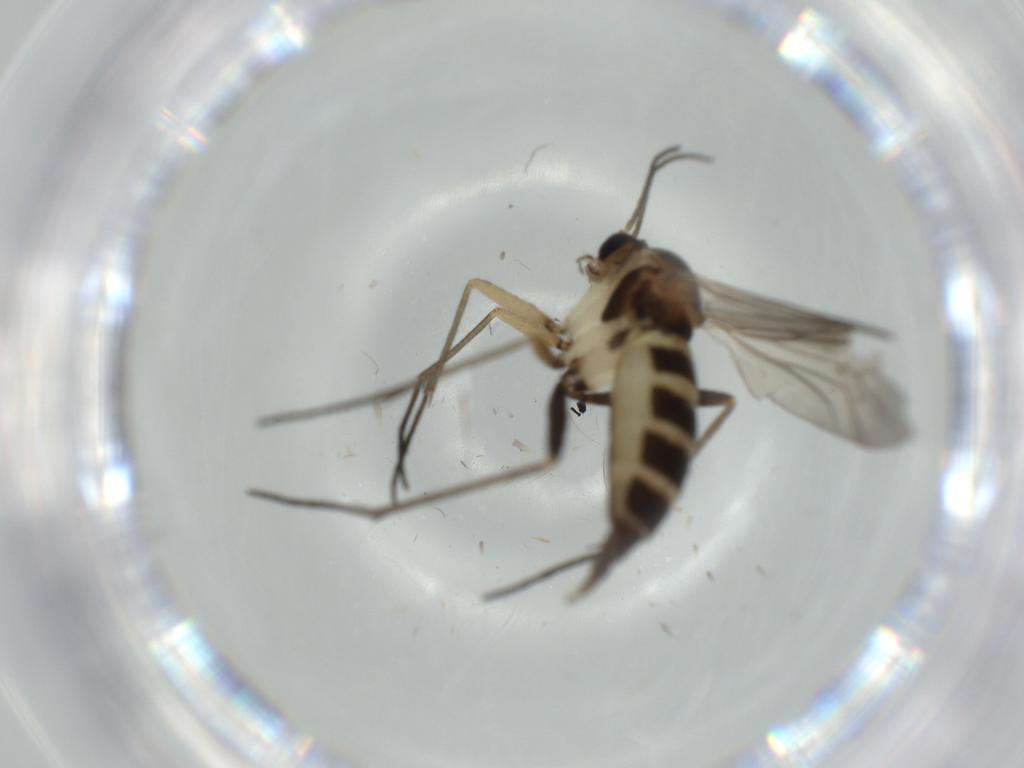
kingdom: Animalia
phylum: Arthropoda
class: Insecta
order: Diptera
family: Sciaridae
